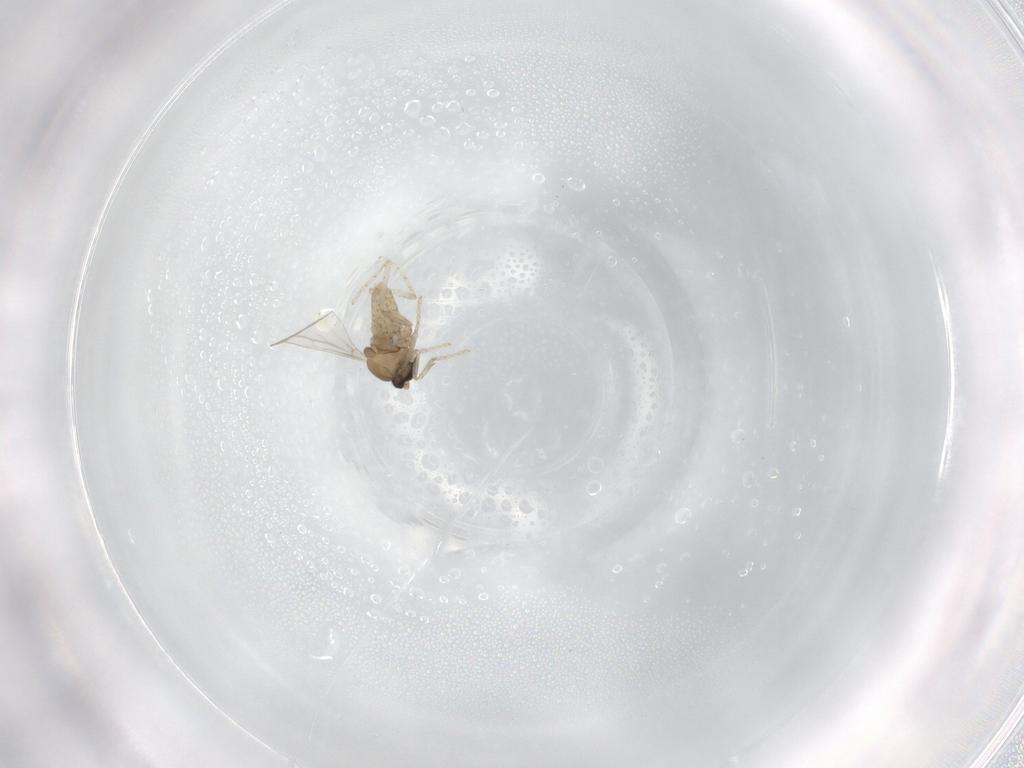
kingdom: Animalia
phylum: Arthropoda
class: Insecta
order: Diptera
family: Cecidomyiidae
